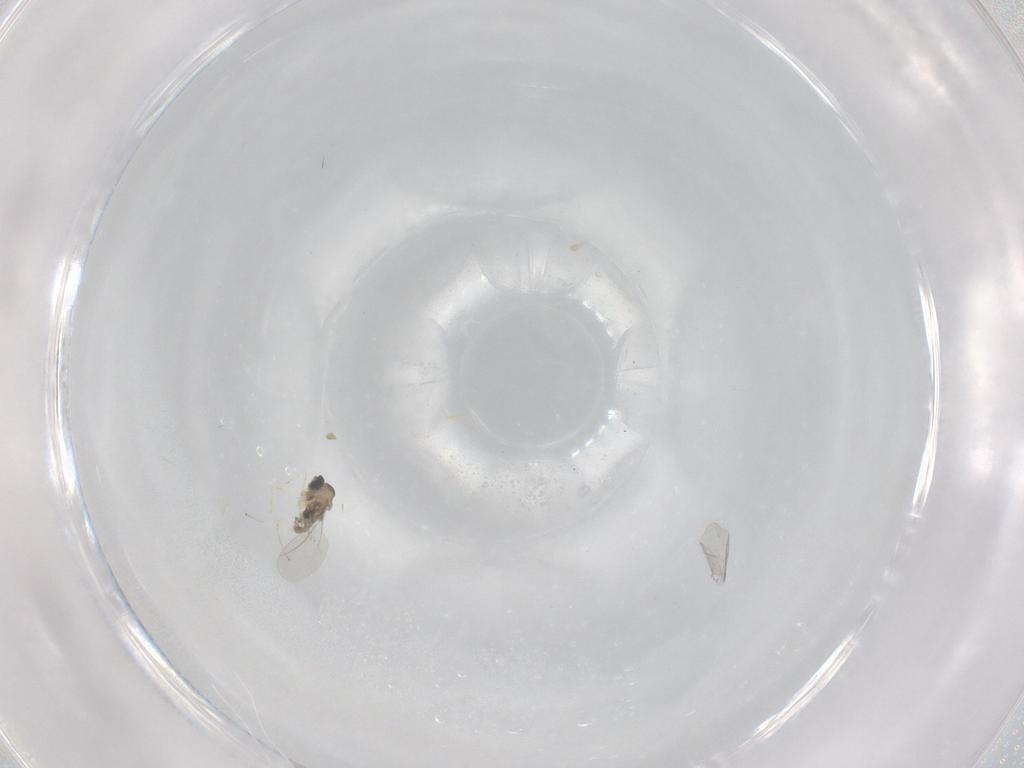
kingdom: Animalia
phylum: Arthropoda
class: Insecta
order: Diptera
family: Cecidomyiidae
